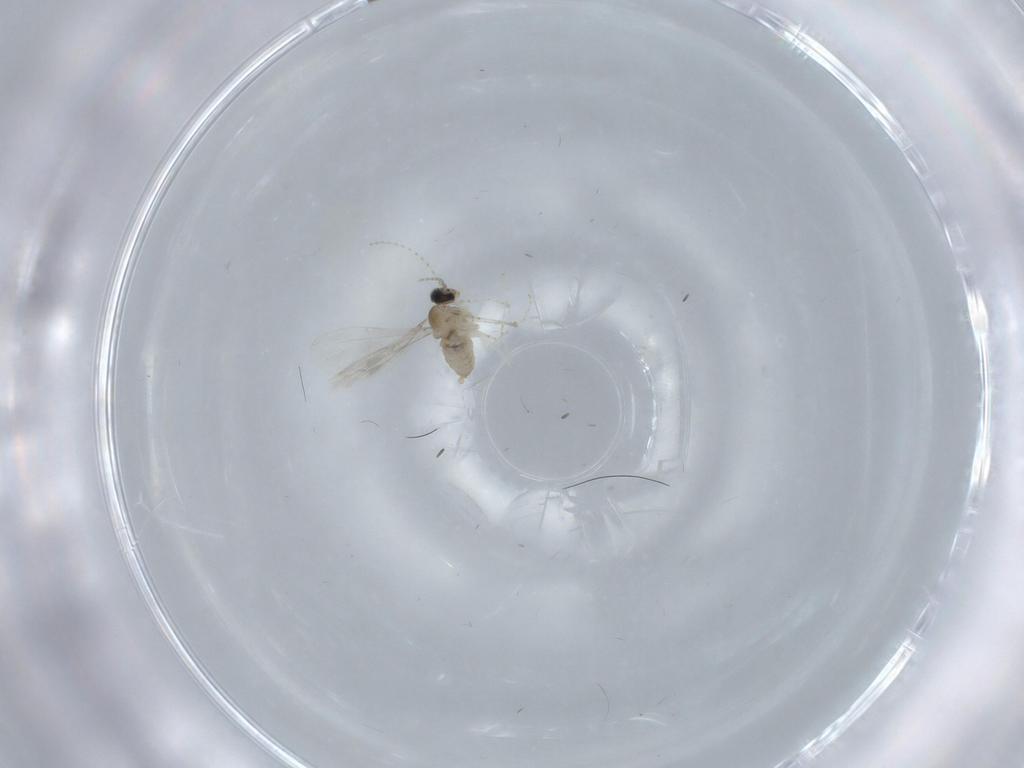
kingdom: Animalia
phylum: Arthropoda
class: Insecta
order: Diptera
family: Cecidomyiidae
